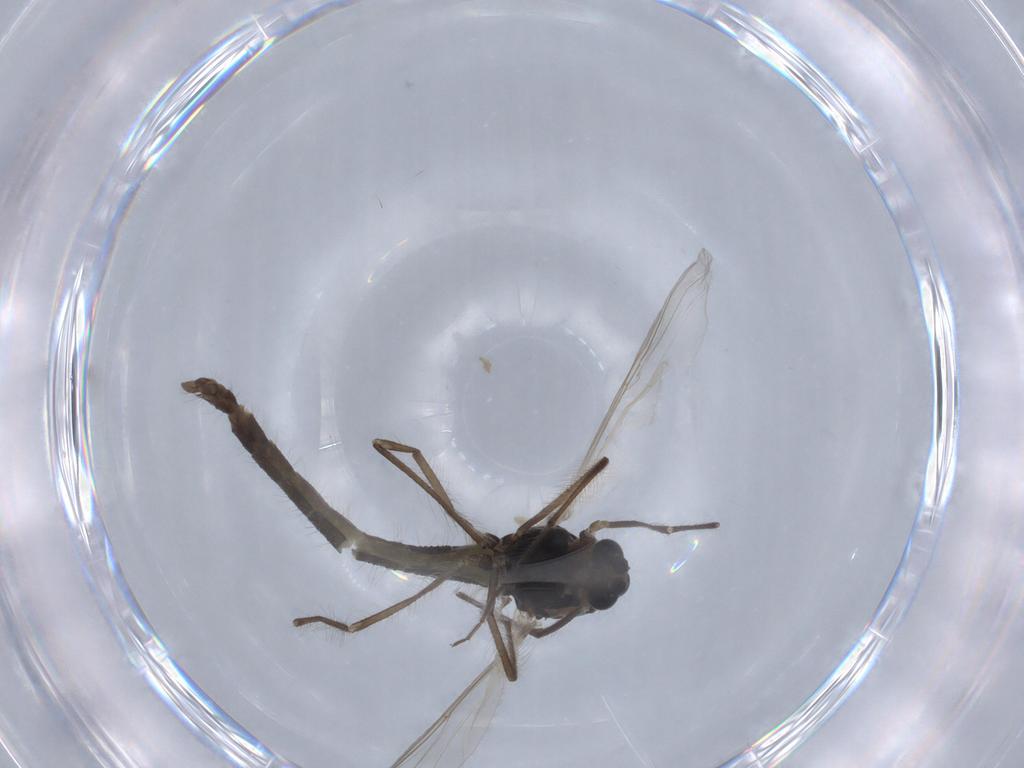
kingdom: Animalia
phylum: Arthropoda
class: Insecta
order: Diptera
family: Chironomidae
